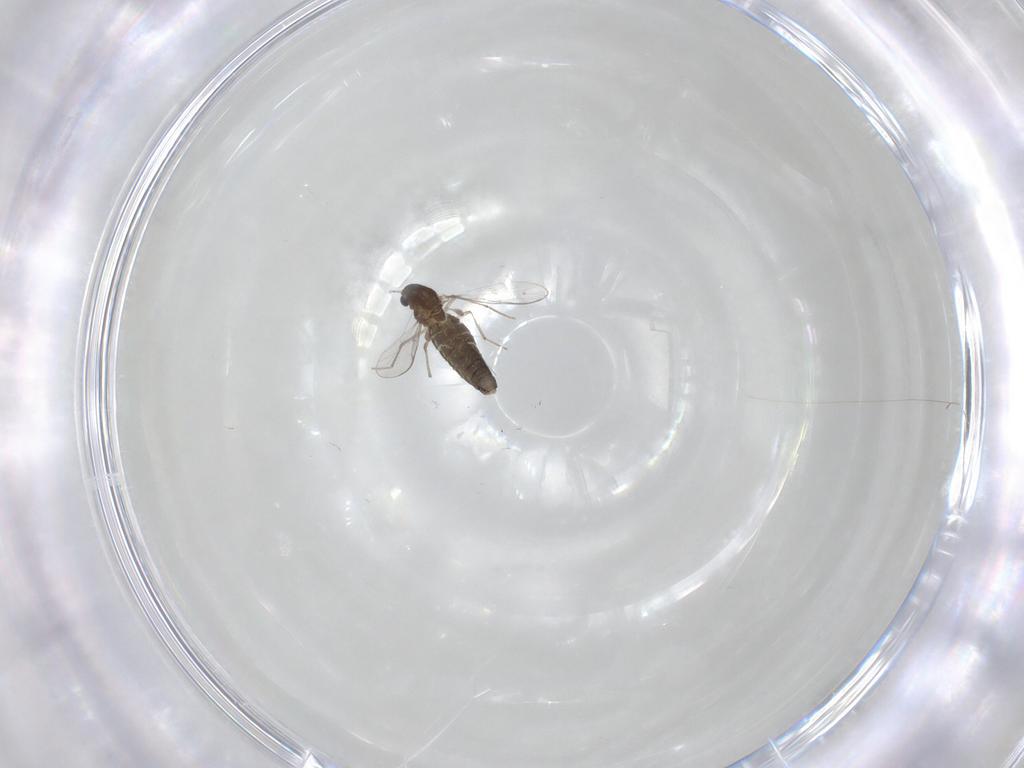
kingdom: Animalia
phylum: Arthropoda
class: Insecta
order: Diptera
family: Chironomidae
